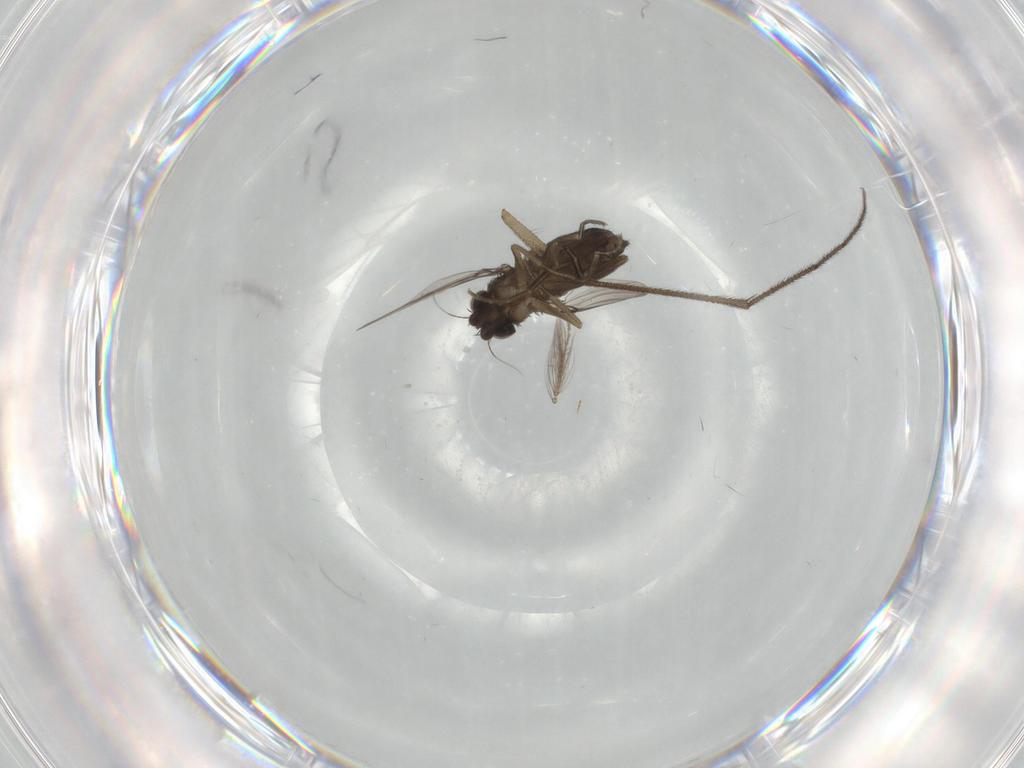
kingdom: Animalia
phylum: Arthropoda
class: Insecta
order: Diptera
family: Phoridae
